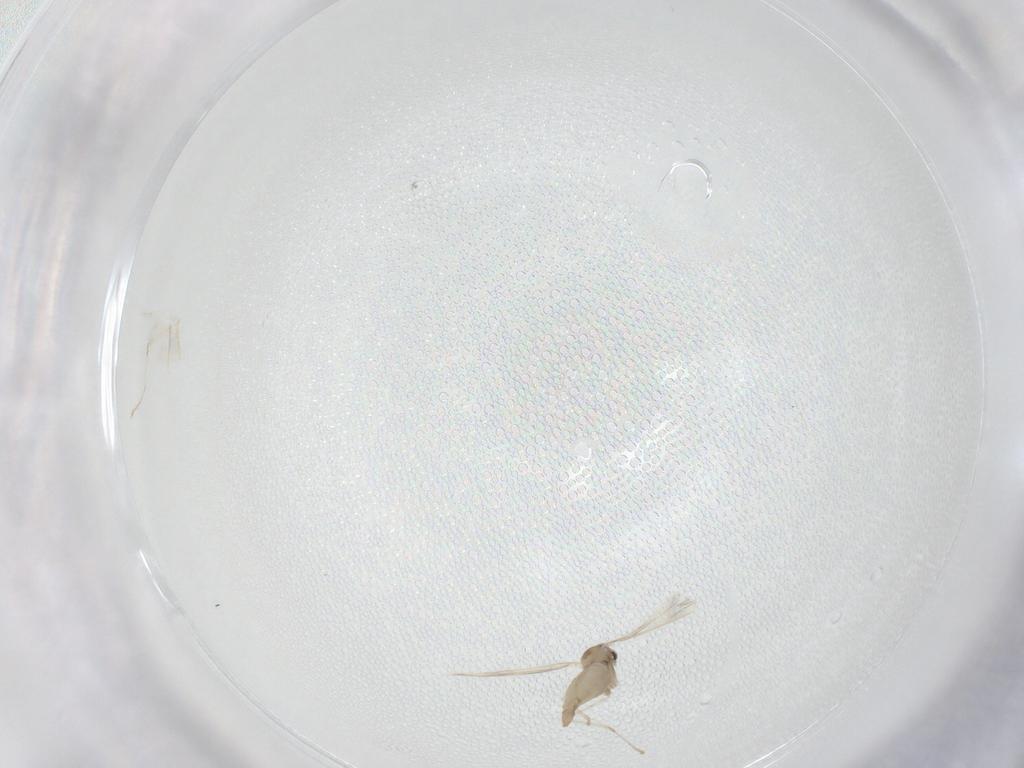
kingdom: Animalia
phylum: Arthropoda
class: Insecta
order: Diptera
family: Cecidomyiidae
